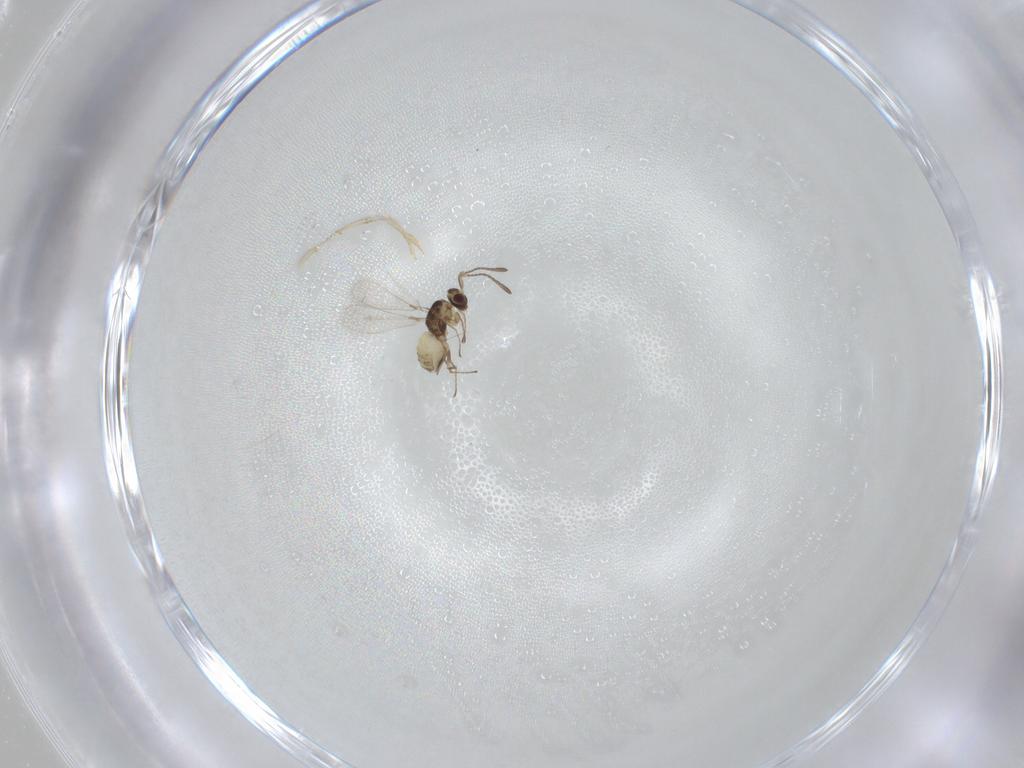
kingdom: Animalia
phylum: Arthropoda
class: Insecta
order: Hymenoptera
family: Mymaridae
